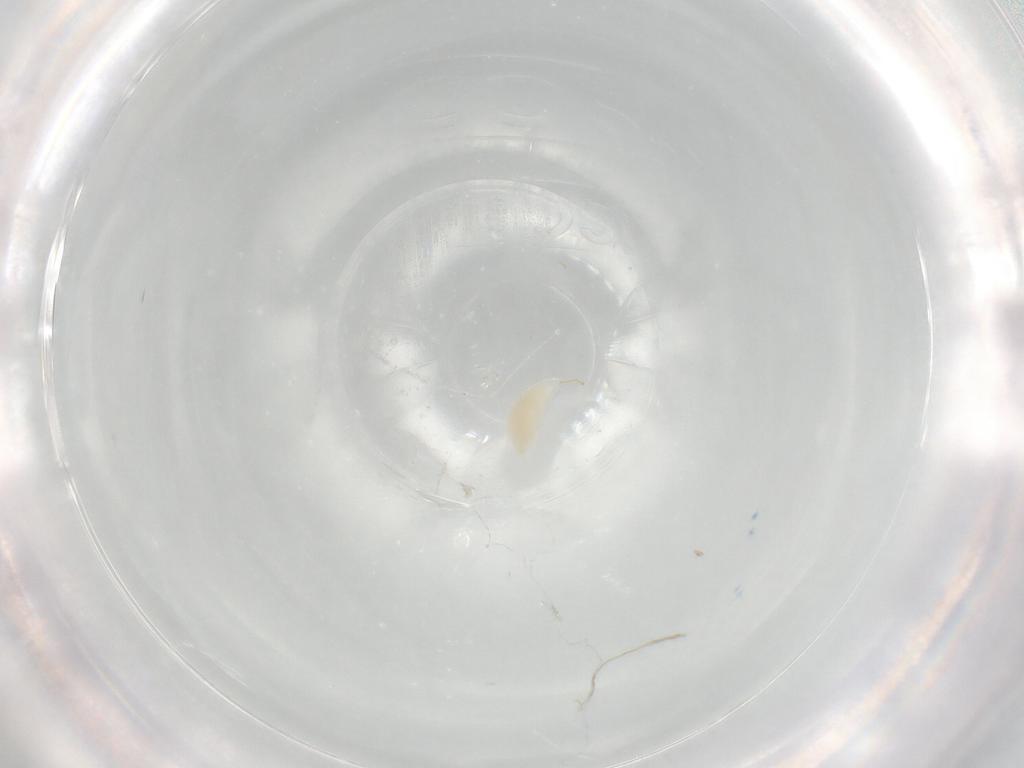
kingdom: Animalia
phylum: Arthropoda
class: Insecta
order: Hymenoptera
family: Ichneumonidae
